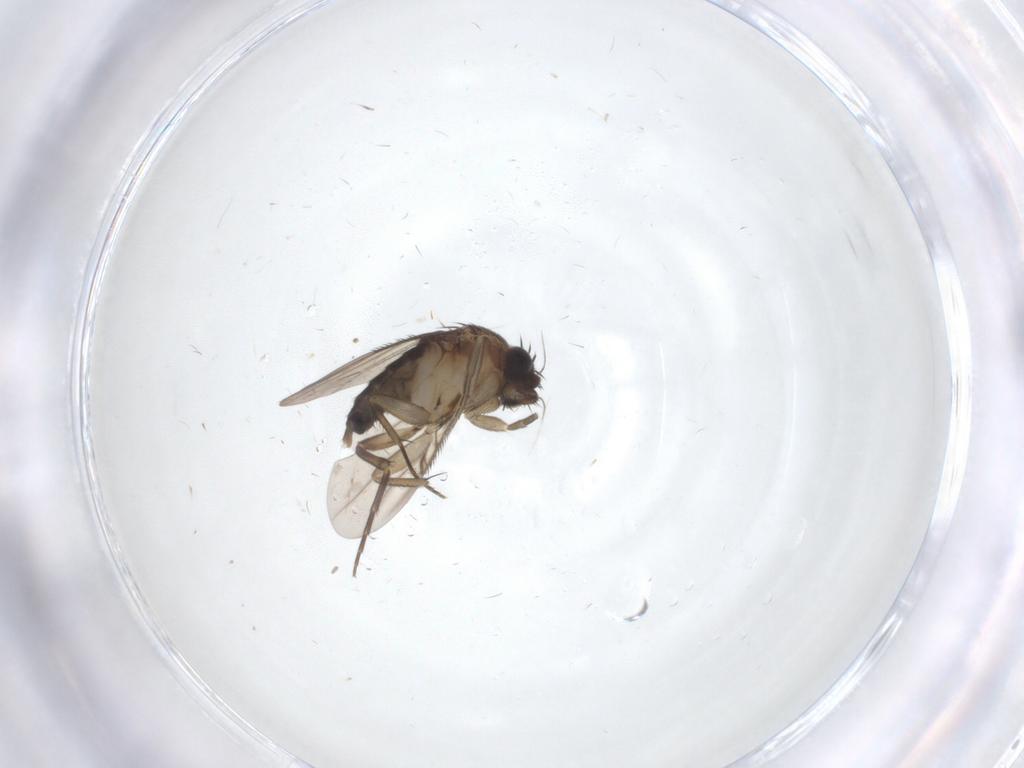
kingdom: Animalia
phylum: Arthropoda
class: Insecta
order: Diptera
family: Phoridae
